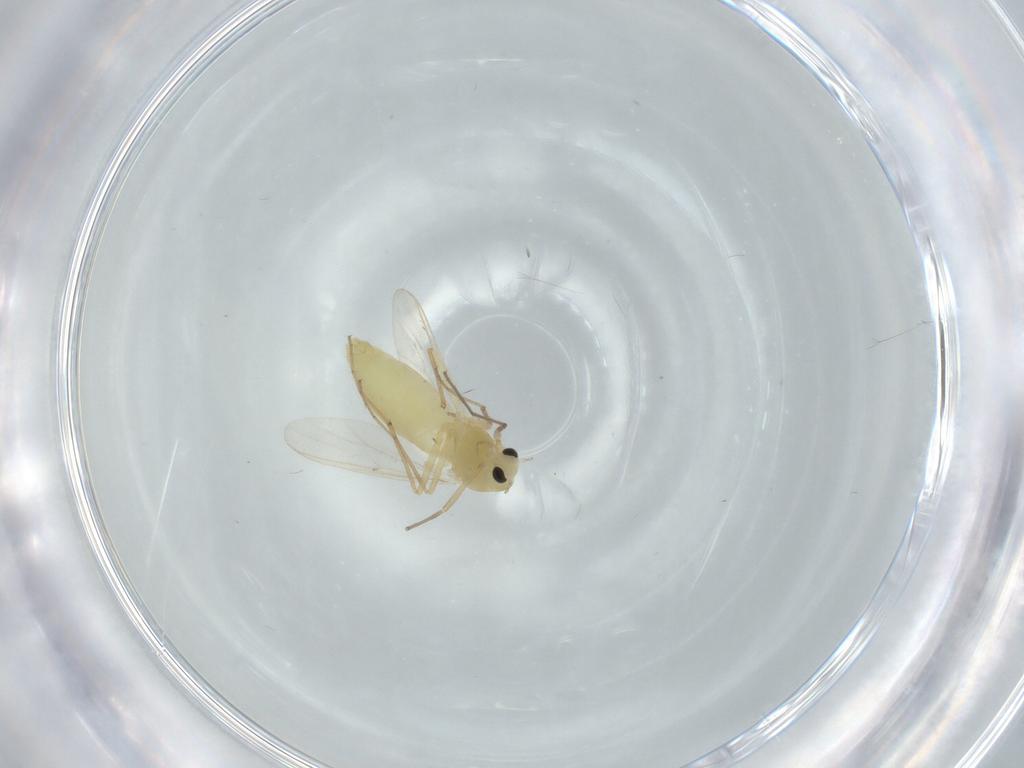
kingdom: Animalia
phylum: Arthropoda
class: Insecta
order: Diptera
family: Chironomidae
